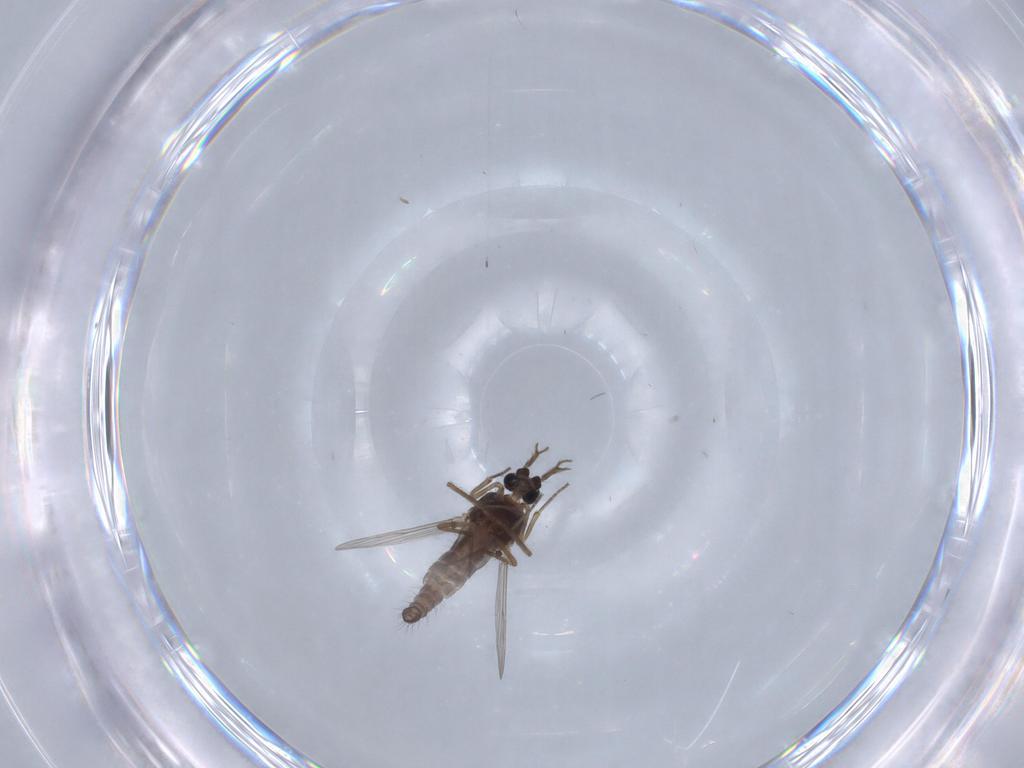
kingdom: Animalia
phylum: Arthropoda
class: Insecta
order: Diptera
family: Ceratopogonidae
